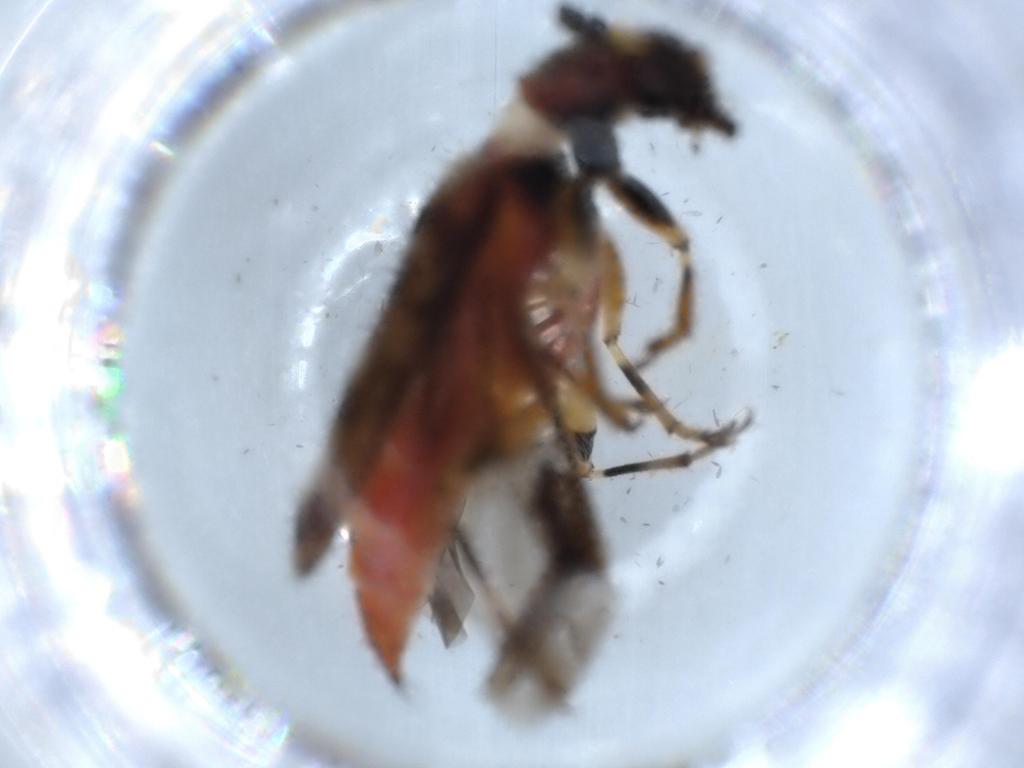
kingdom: Animalia
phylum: Arthropoda
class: Insecta
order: Coleoptera
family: Cleridae
